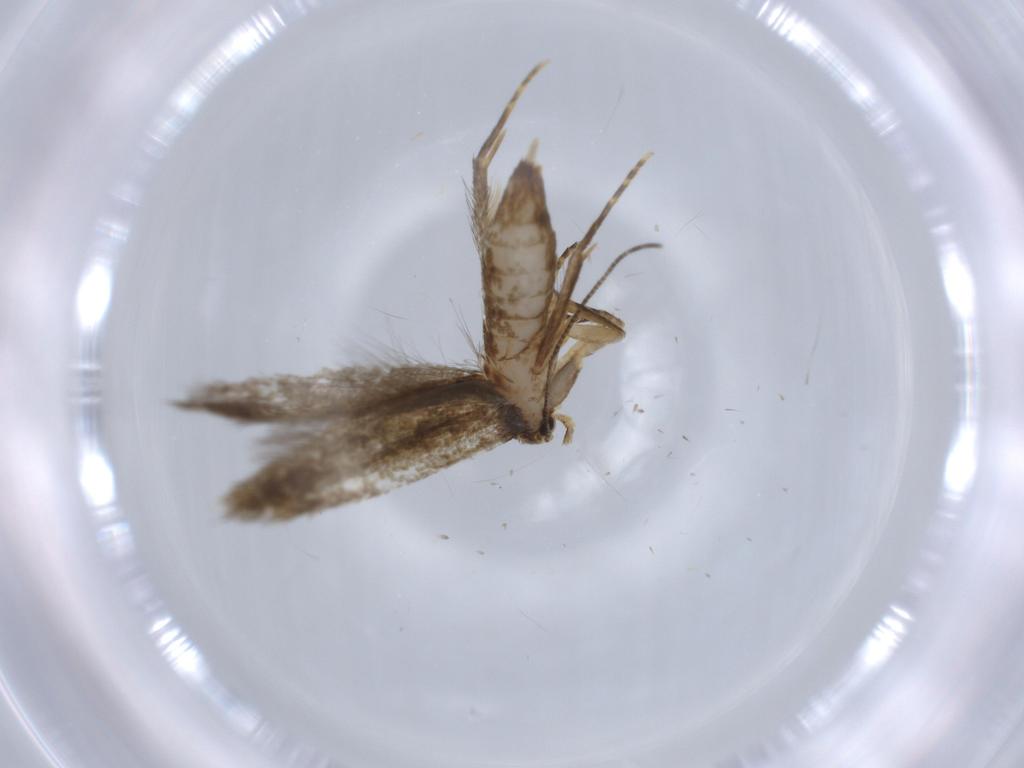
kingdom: Animalia
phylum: Arthropoda
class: Insecta
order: Lepidoptera
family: Tineidae
